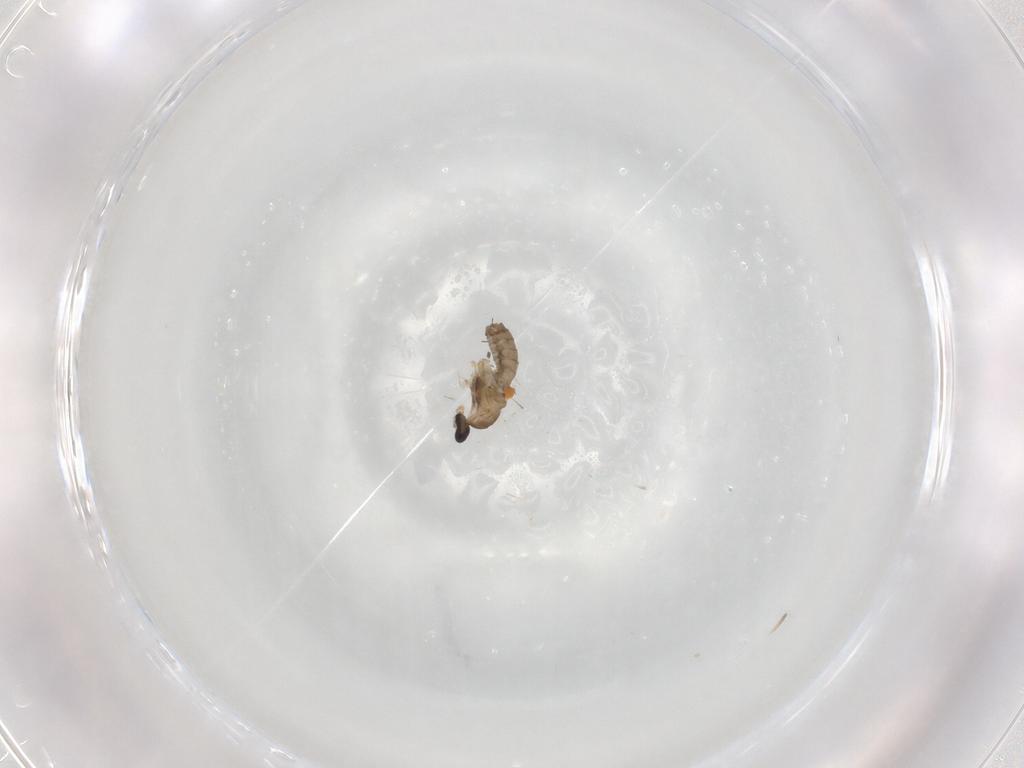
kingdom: Animalia
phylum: Arthropoda
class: Insecta
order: Diptera
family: Cecidomyiidae
